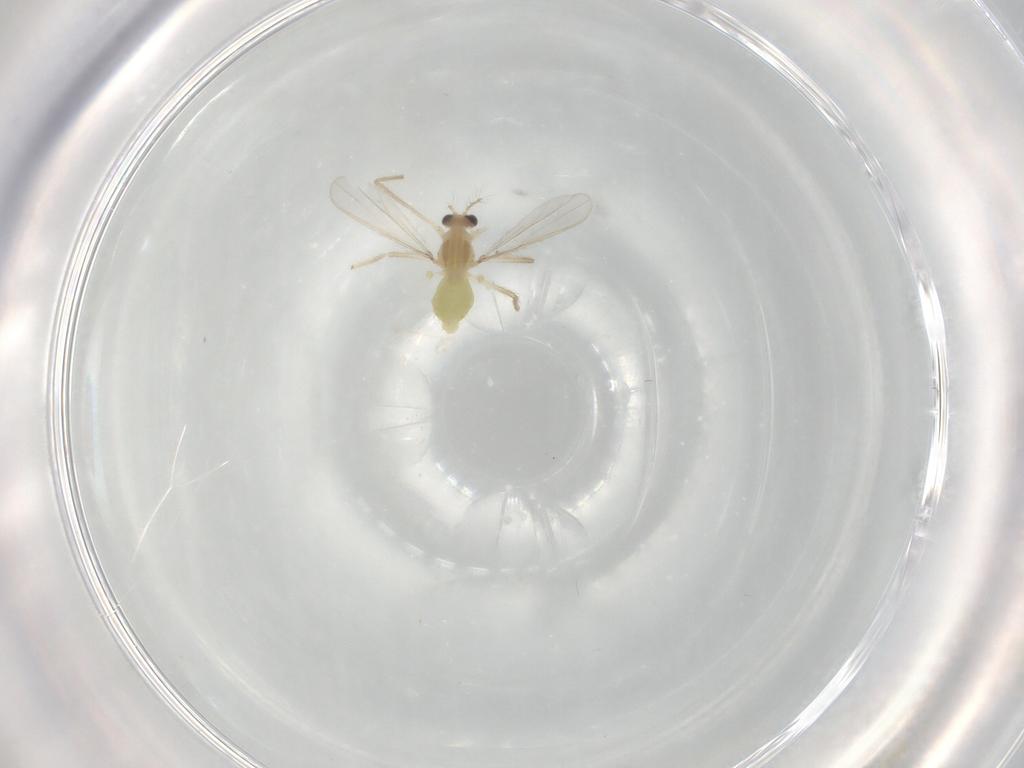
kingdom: Animalia
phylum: Arthropoda
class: Insecta
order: Diptera
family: Chironomidae
